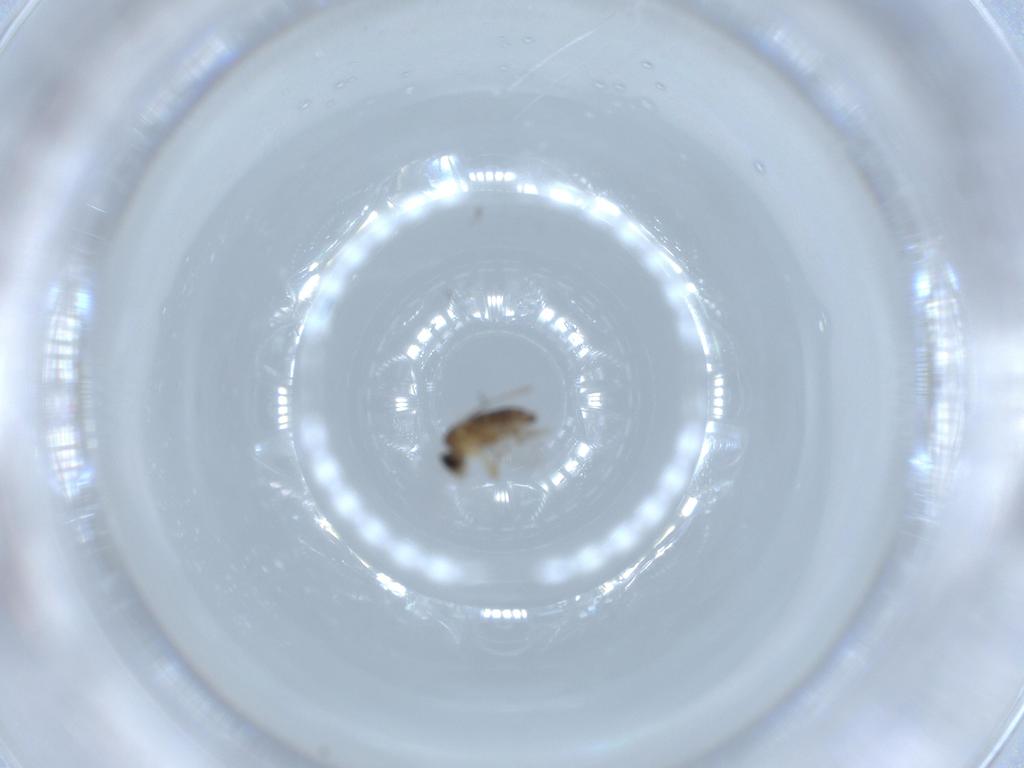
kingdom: Animalia
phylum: Arthropoda
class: Insecta
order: Diptera
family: Phoridae
